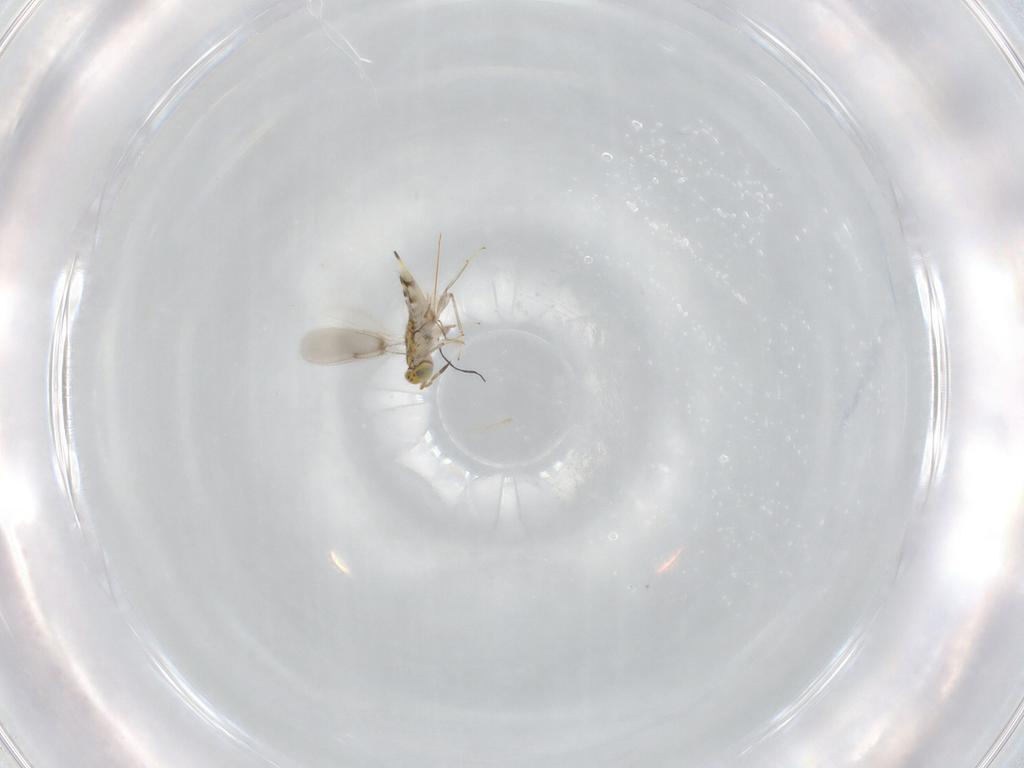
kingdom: Animalia
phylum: Arthropoda
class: Insecta
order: Hymenoptera
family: Aphelinidae
